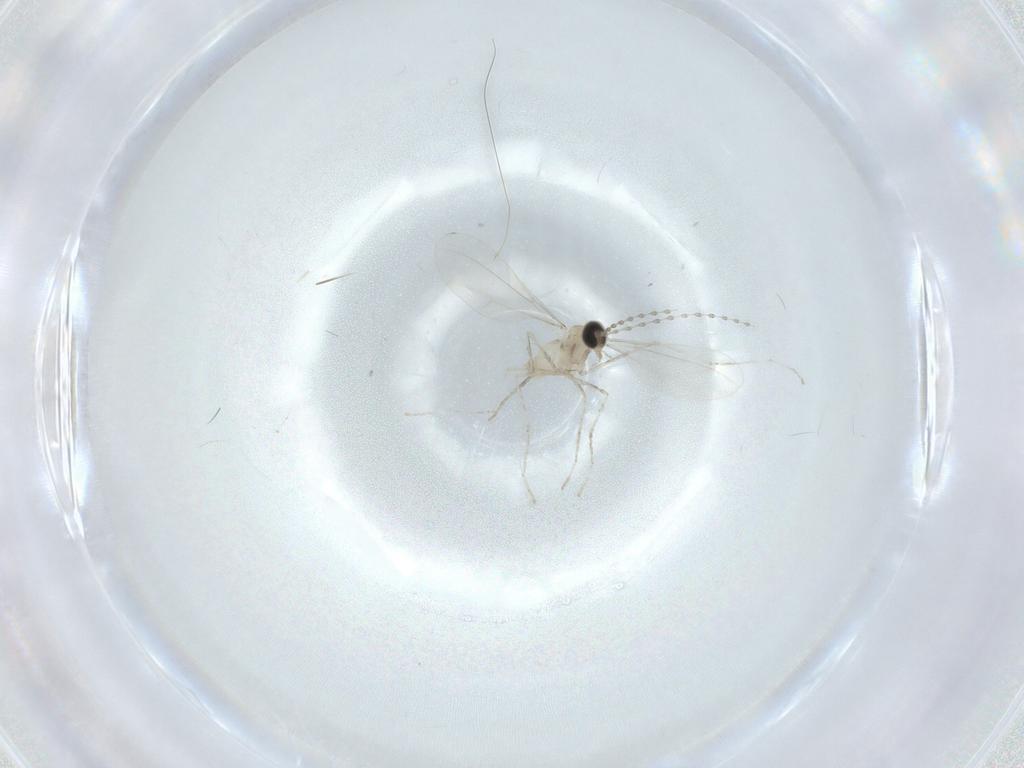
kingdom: Animalia
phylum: Arthropoda
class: Insecta
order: Diptera
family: Cecidomyiidae
